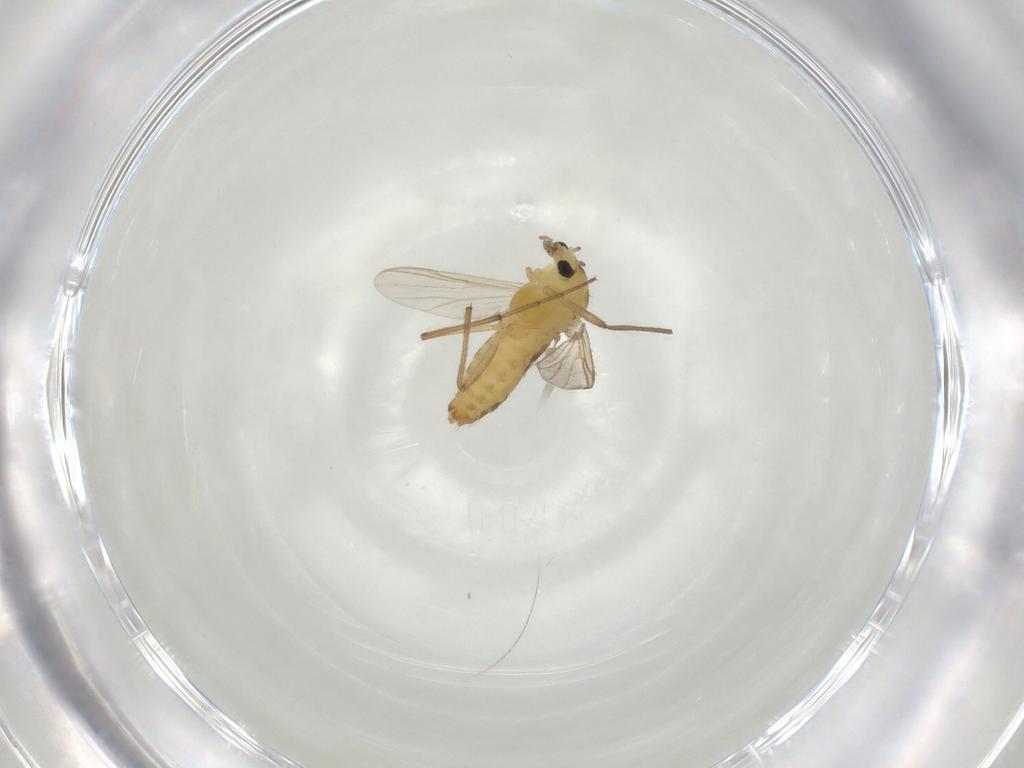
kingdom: Animalia
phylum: Arthropoda
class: Insecta
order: Diptera
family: Chironomidae
